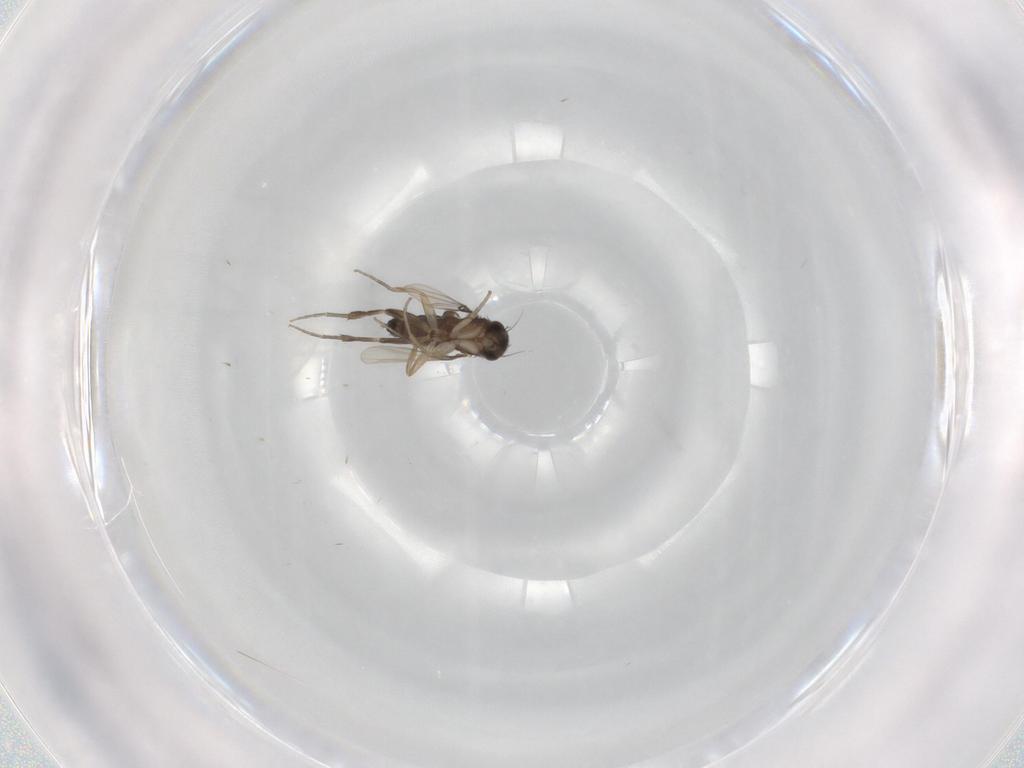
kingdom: Animalia
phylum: Arthropoda
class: Insecta
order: Diptera
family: Phoridae
